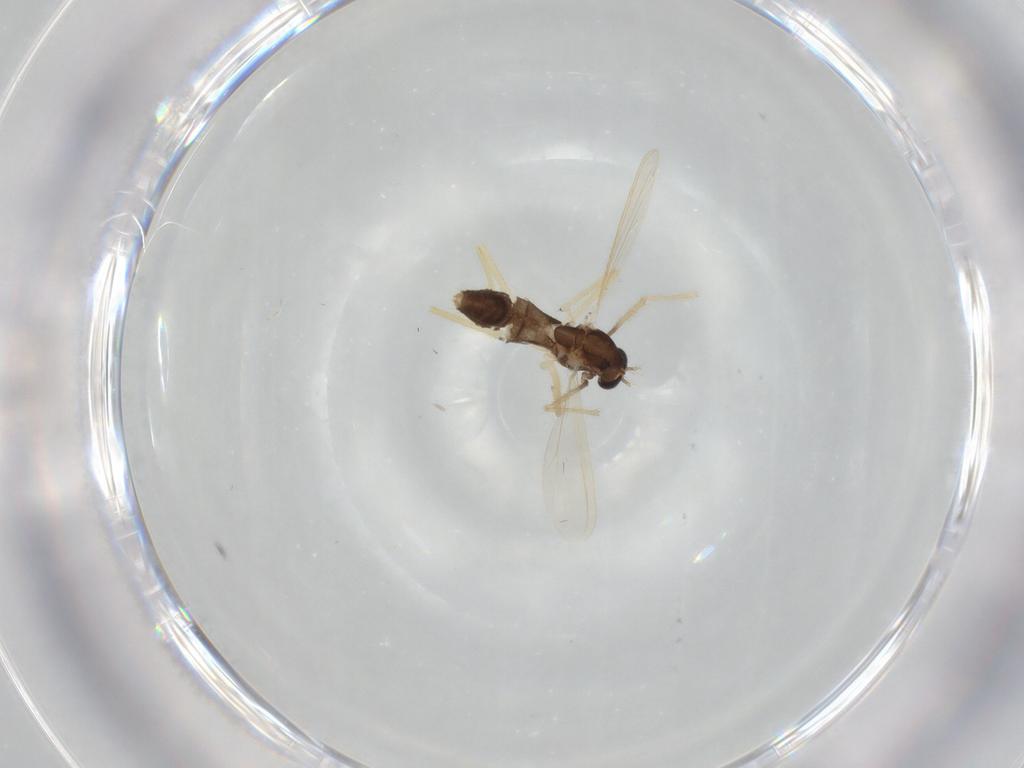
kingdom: Animalia
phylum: Arthropoda
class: Insecta
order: Diptera
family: Chironomidae
